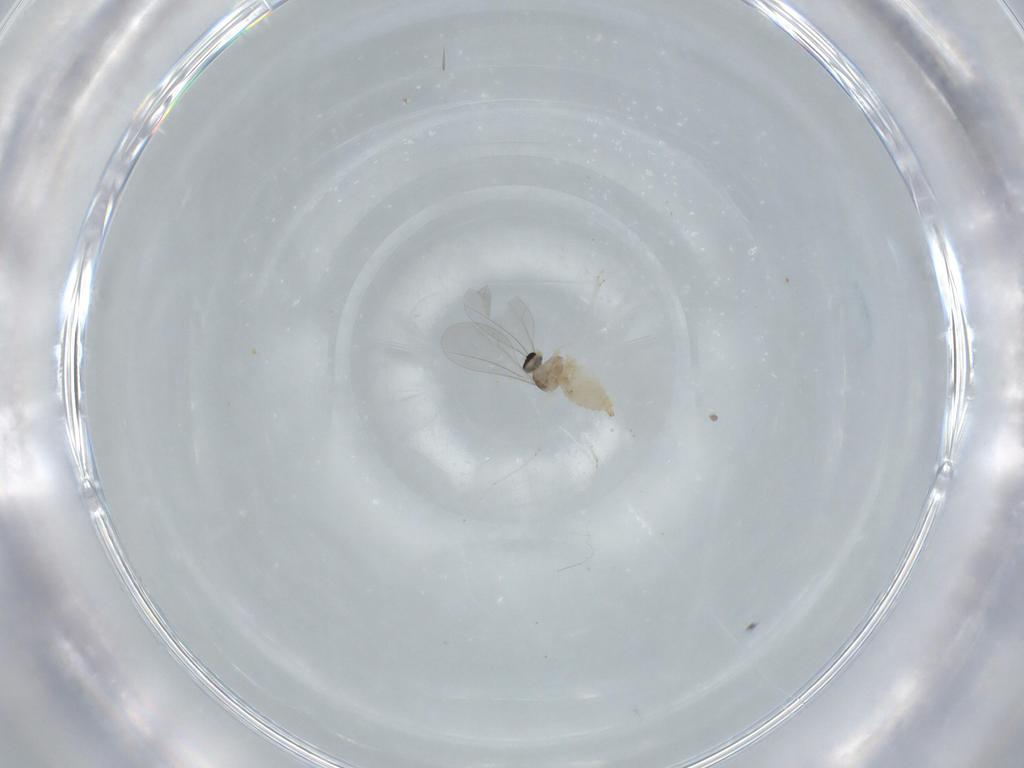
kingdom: Animalia
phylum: Arthropoda
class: Insecta
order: Diptera
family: Cecidomyiidae
